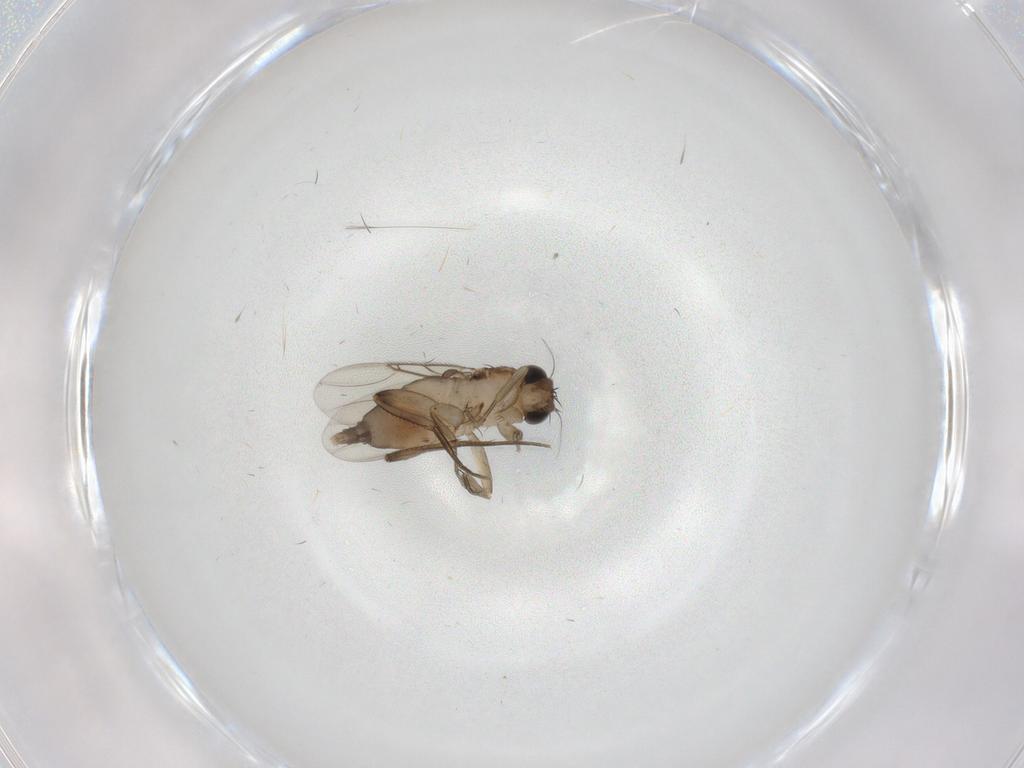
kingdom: Animalia
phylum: Arthropoda
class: Insecta
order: Diptera
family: Phoridae
